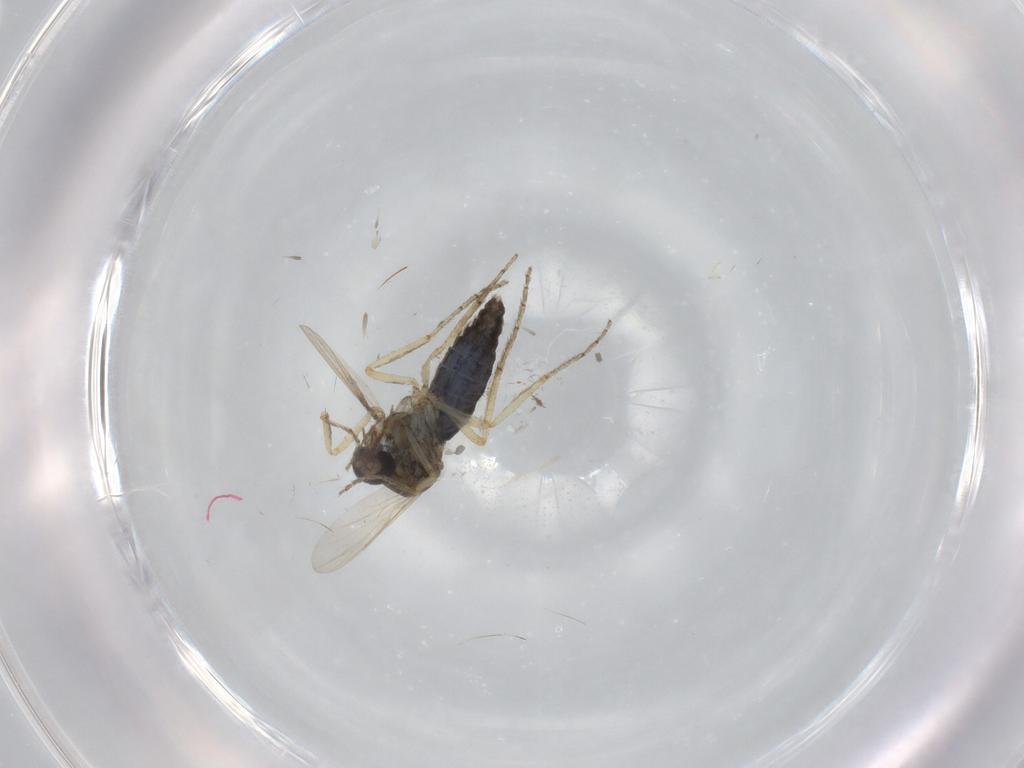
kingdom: Animalia
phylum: Arthropoda
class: Insecta
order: Diptera
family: Ceratopogonidae
